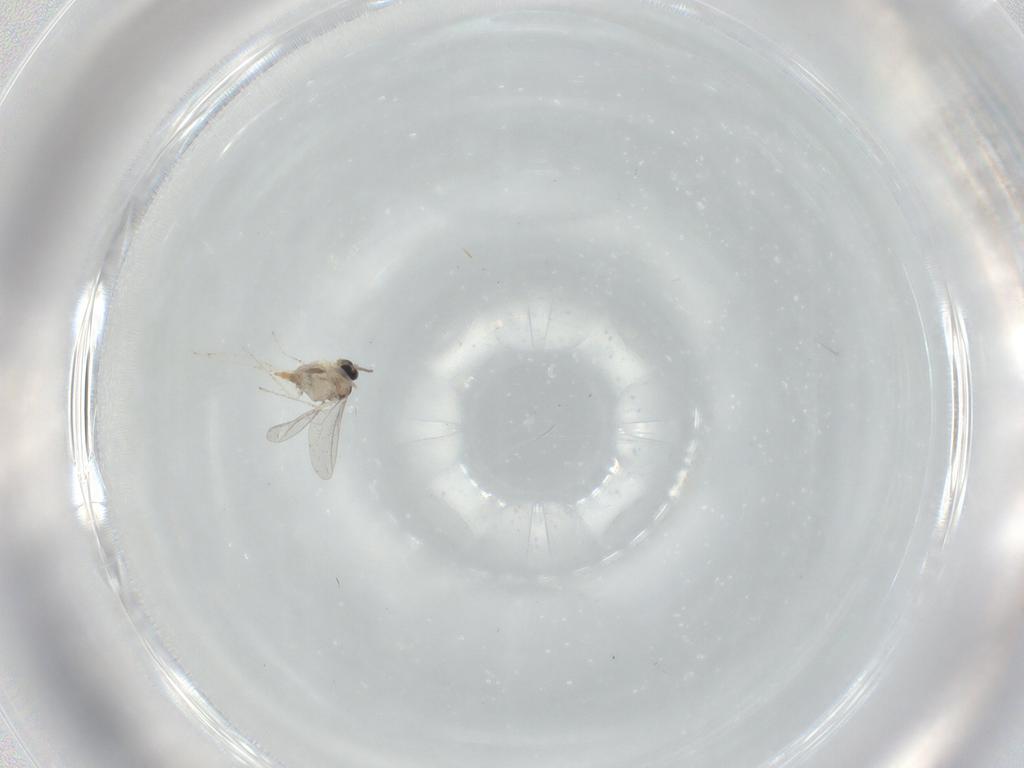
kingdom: Animalia
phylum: Arthropoda
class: Insecta
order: Diptera
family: Cecidomyiidae
